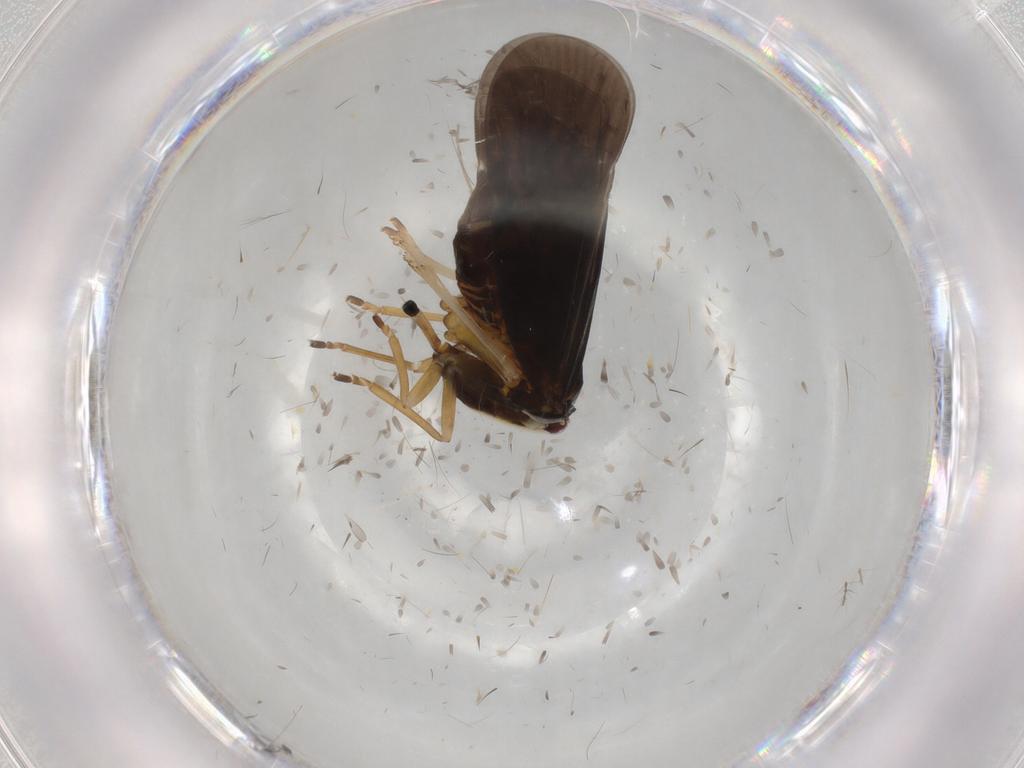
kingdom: Animalia
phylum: Arthropoda
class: Insecta
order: Hemiptera
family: Derbidae
